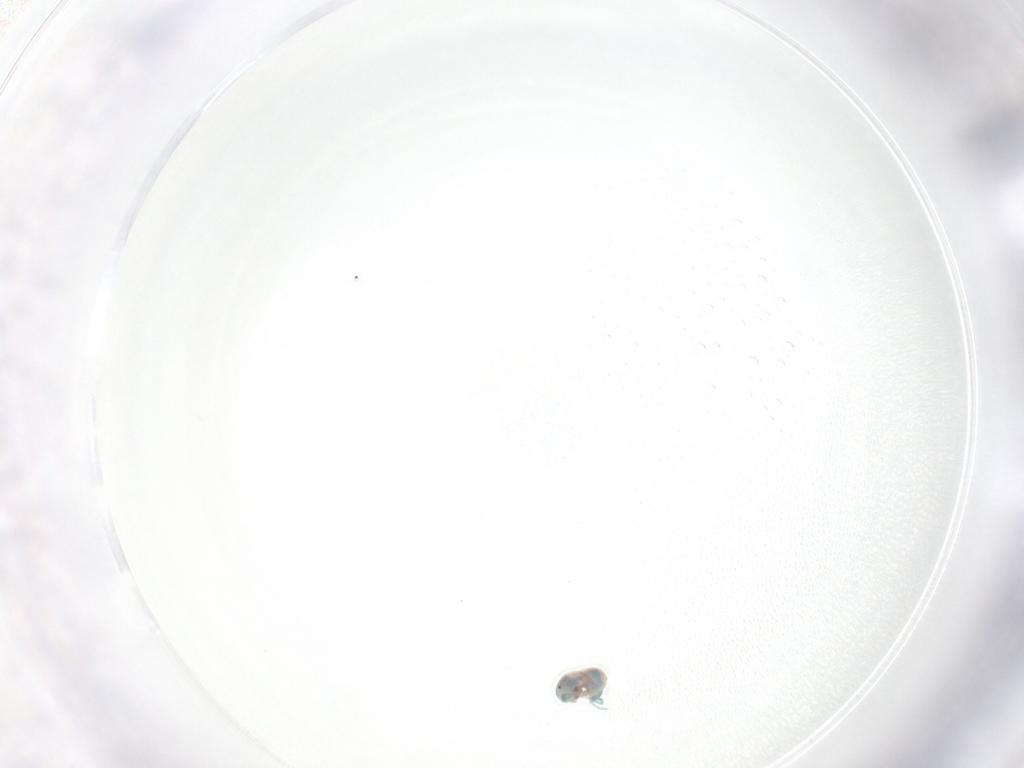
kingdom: Animalia
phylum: Arthropoda
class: Arachnida
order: Trombidiformes
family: Arrenuridae
